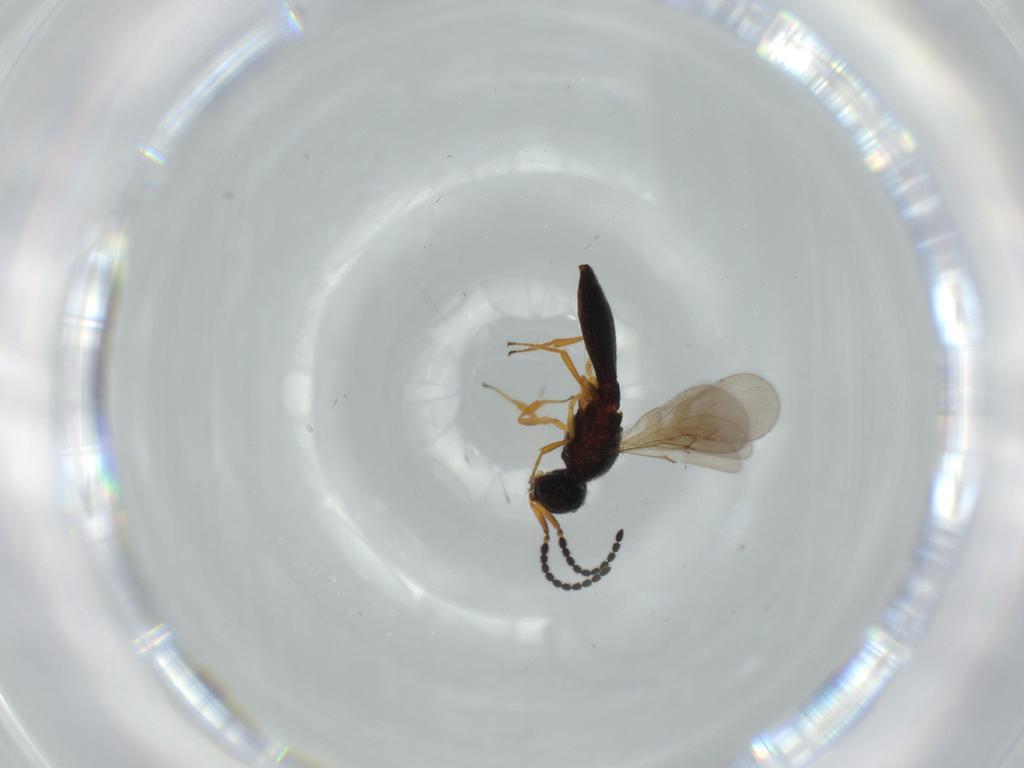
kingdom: Animalia
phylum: Arthropoda
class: Insecta
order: Hymenoptera
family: Scelionidae
